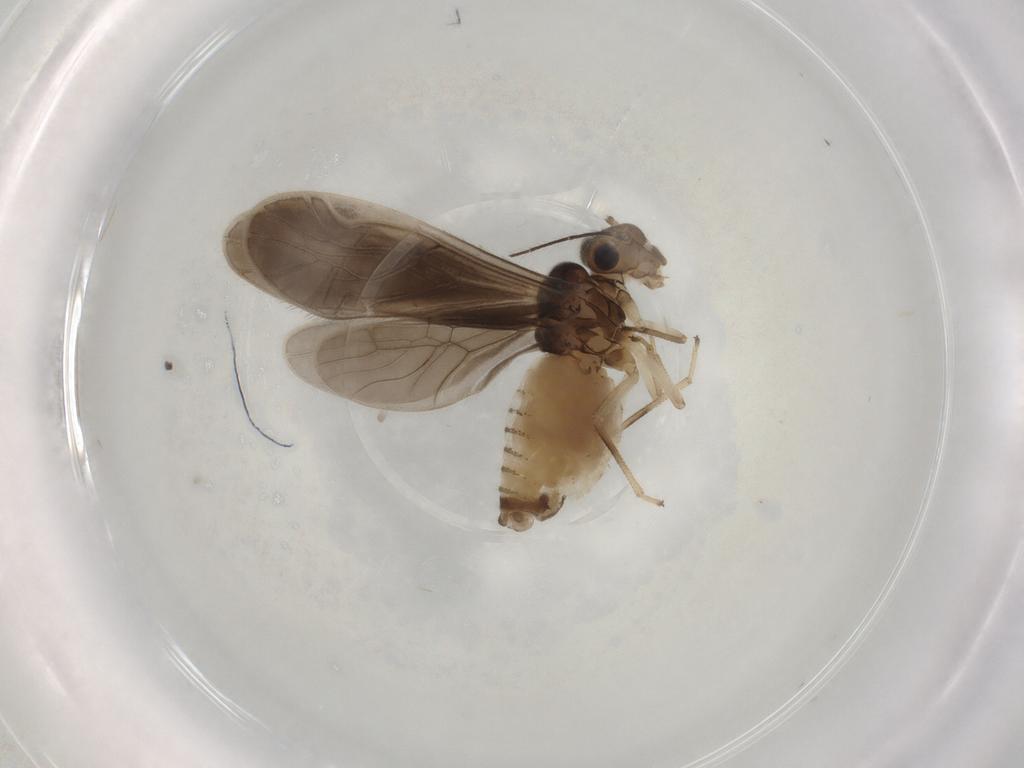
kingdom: Animalia
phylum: Arthropoda
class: Insecta
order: Psocodea
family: Caeciliusidae
